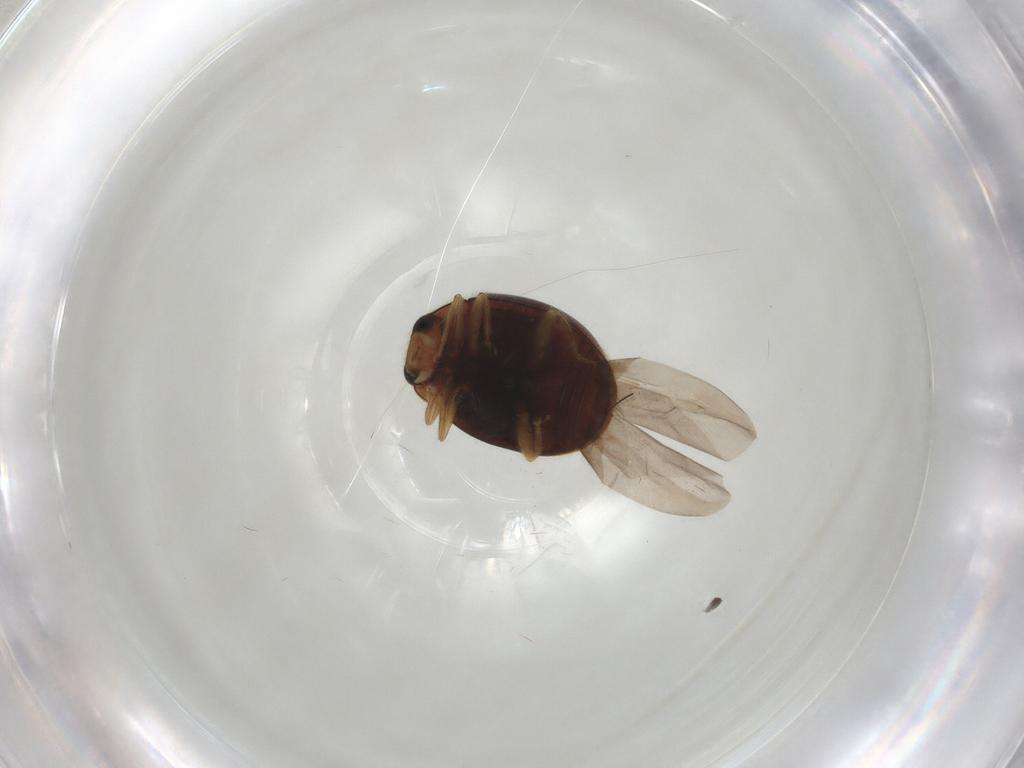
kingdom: Animalia
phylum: Arthropoda
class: Insecta
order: Coleoptera
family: Coccinellidae
